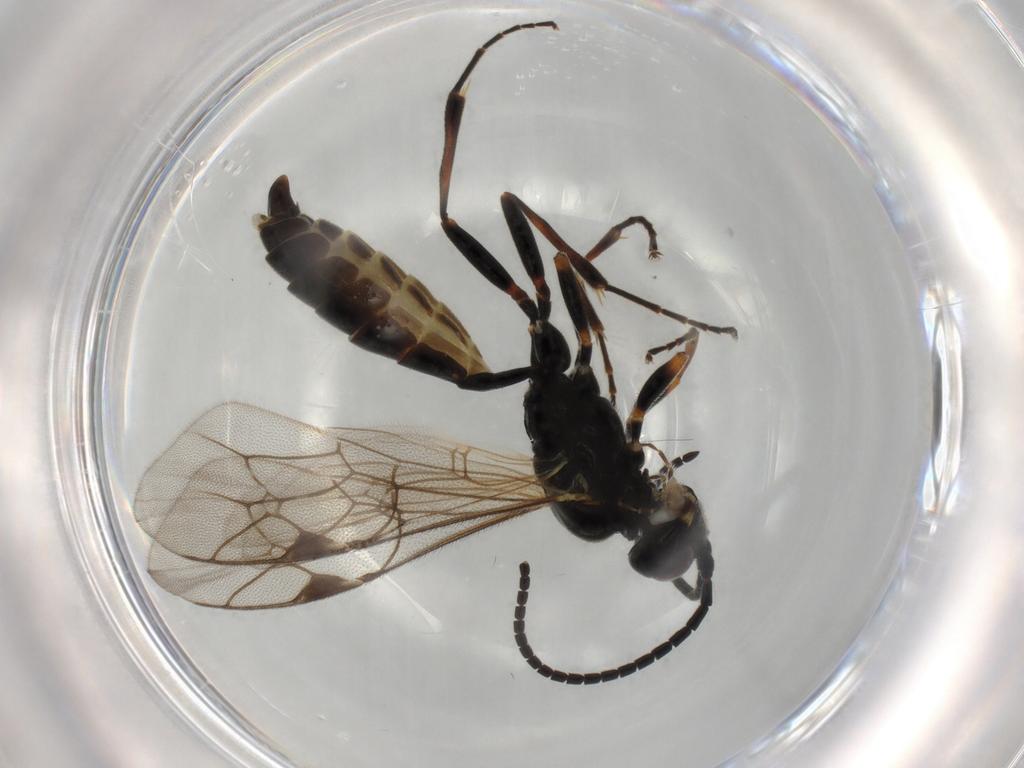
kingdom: Animalia
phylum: Arthropoda
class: Insecta
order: Hymenoptera
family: Ichneumonidae
